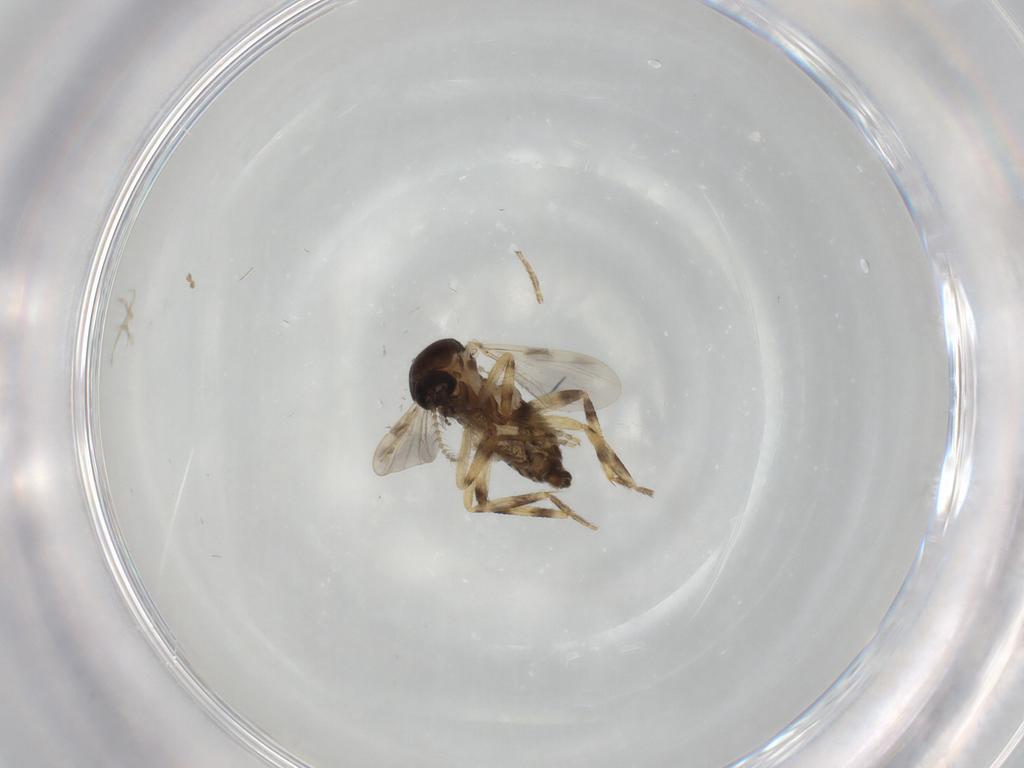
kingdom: Animalia
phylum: Arthropoda
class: Insecta
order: Diptera
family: Ceratopogonidae
